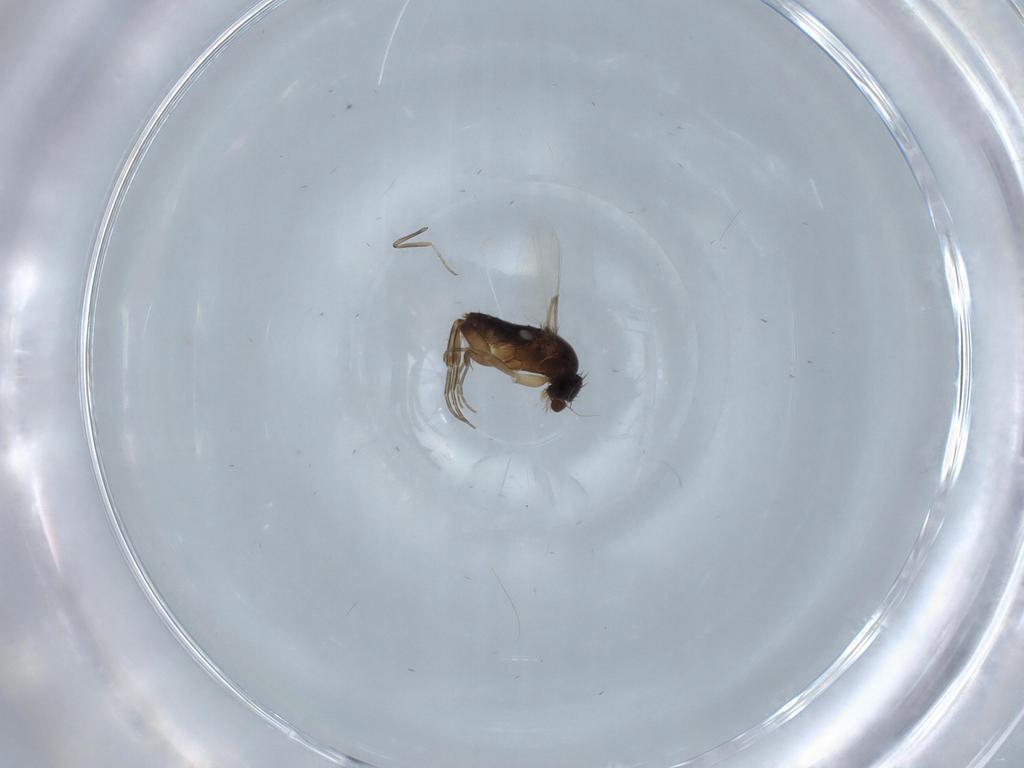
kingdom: Animalia
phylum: Arthropoda
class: Insecta
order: Diptera
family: Phoridae
